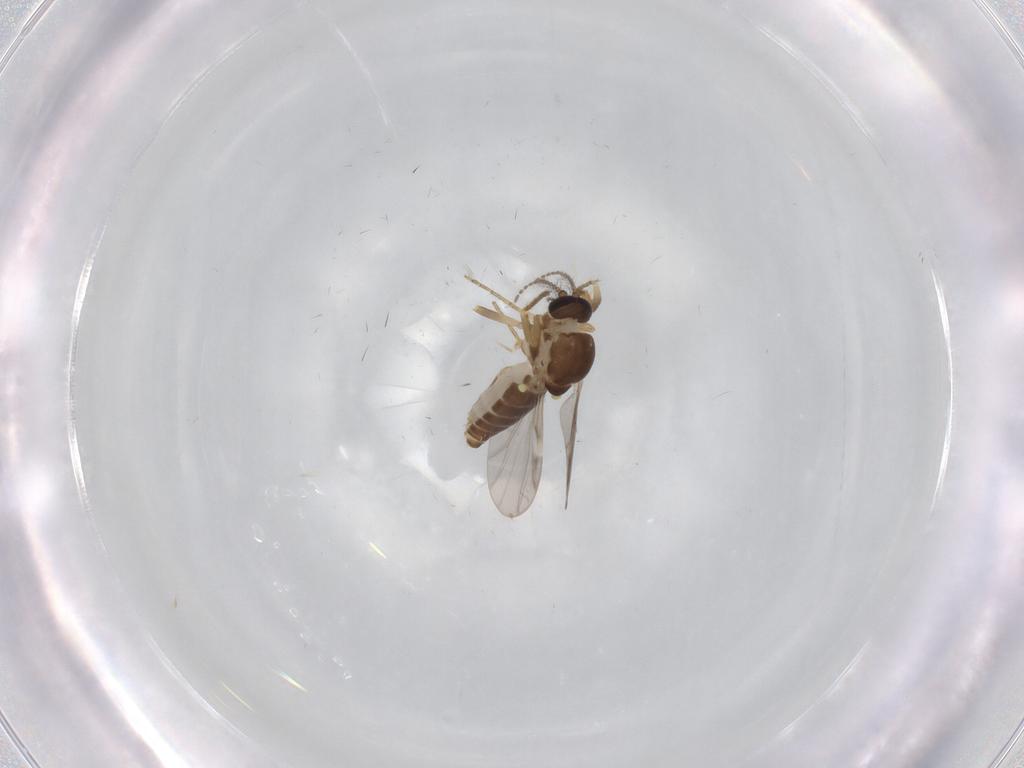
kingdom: Animalia
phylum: Arthropoda
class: Insecta
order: Diptera
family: Ceratopogonidae
